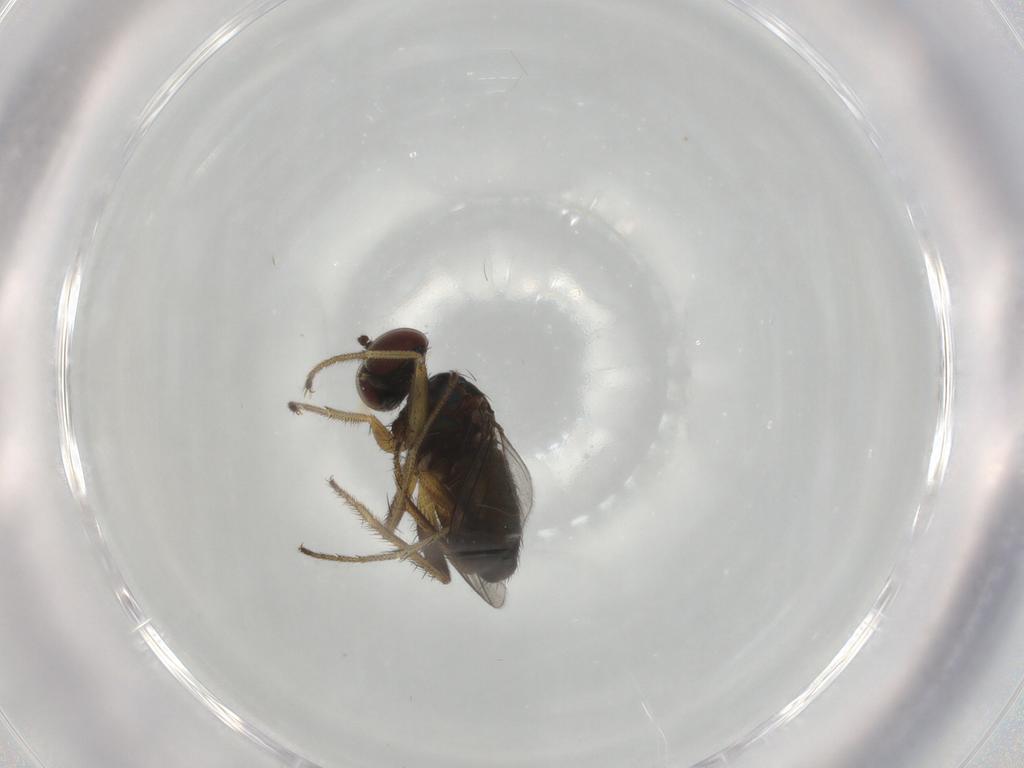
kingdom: Animalia
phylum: Arthropoda
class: Insecta
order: Diptera
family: Dolichopodidae
